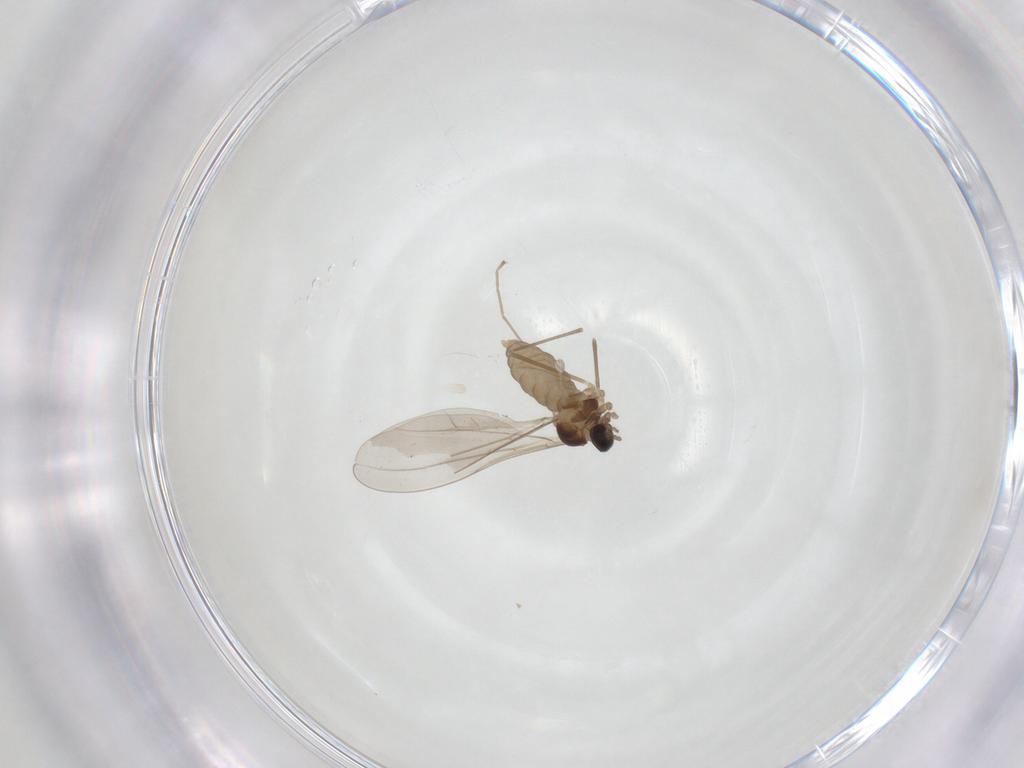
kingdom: Animalia
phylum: Arthropoda
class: Insecta
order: Diptera
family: Cecidomyiidae
